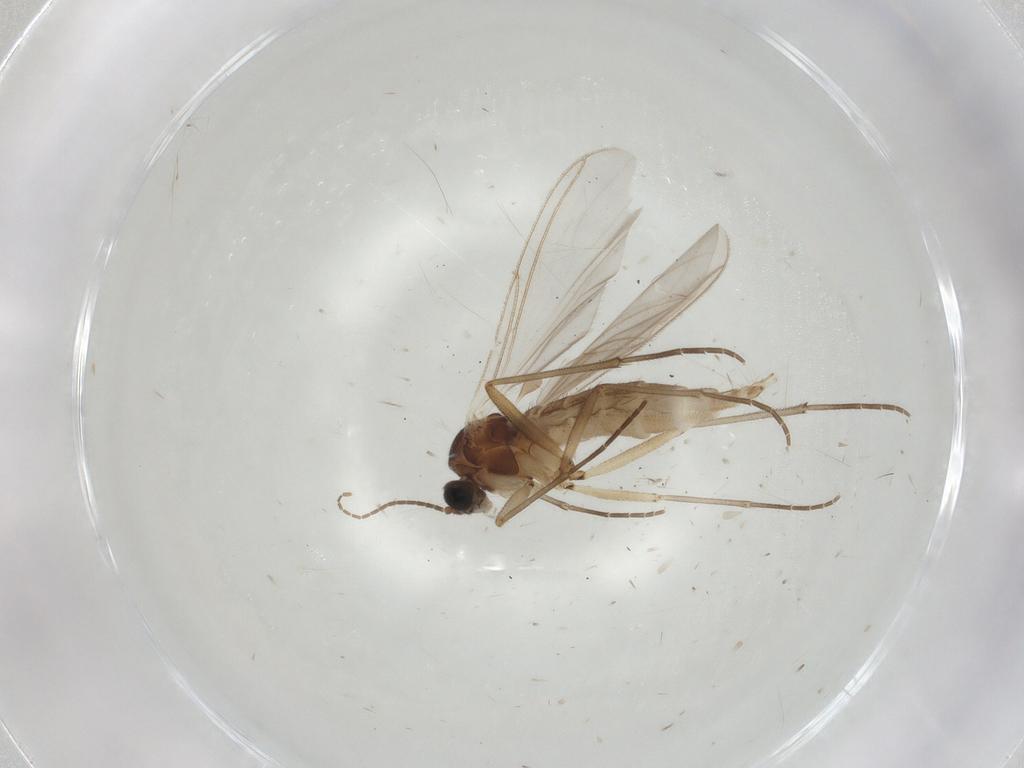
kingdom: Animalia
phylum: Arthropoda
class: Insecta
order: Diptera
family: Sciaridae
